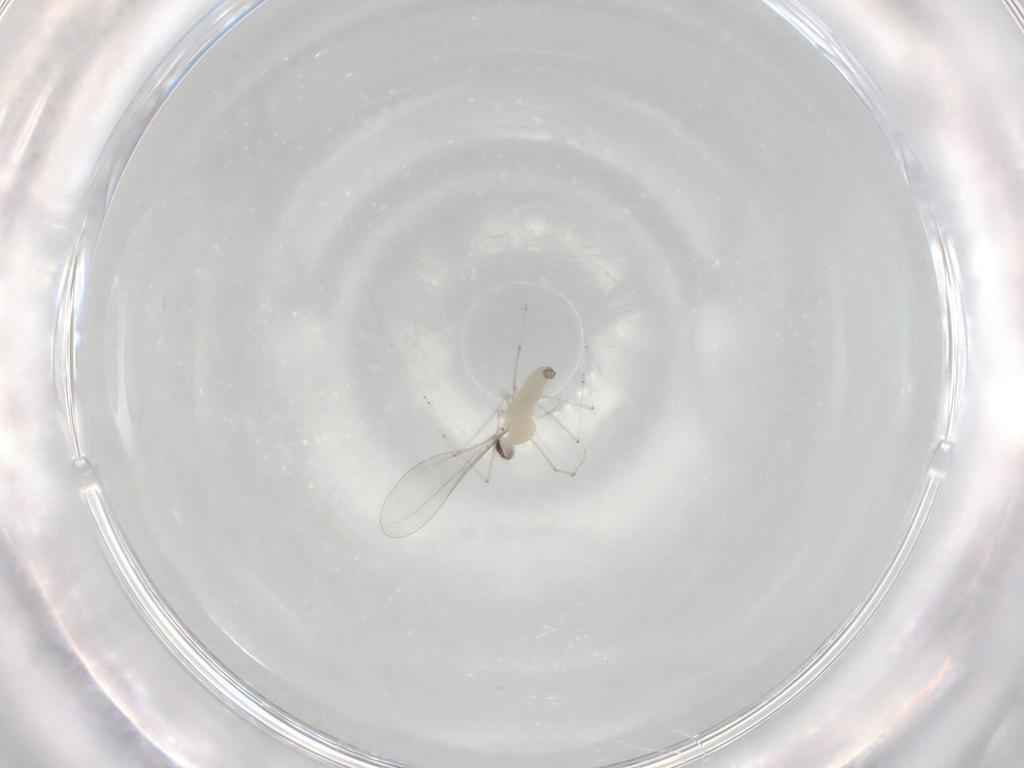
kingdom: Animalia
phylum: Arthropoda
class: Insecta
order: Diptera
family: Cecidomyiidae
